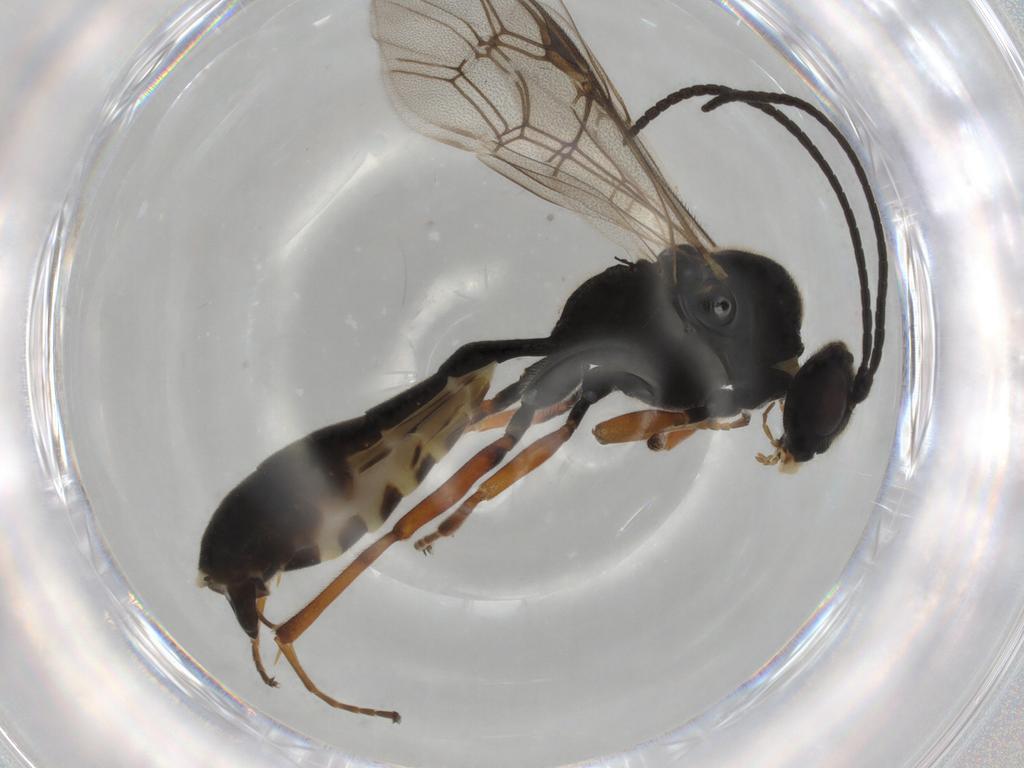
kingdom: Animalia
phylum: Arthropoda
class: Insecta
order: Hymenoptera
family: Ichneumonidae
